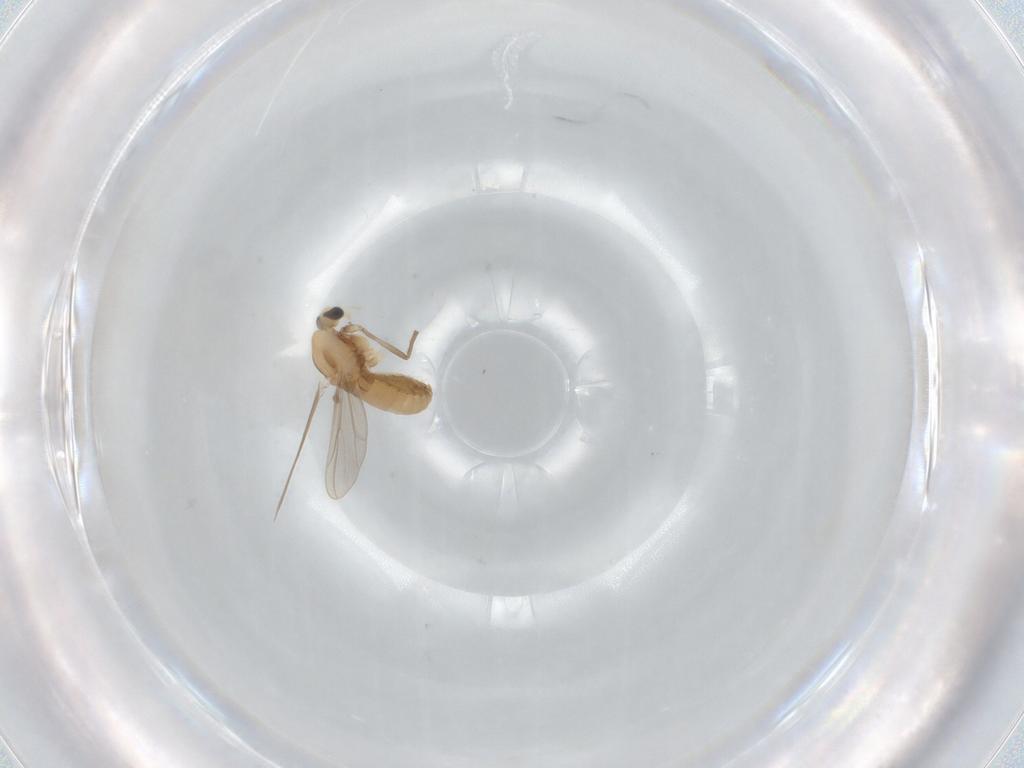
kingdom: Animalia
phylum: Arthropoda
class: Insecta
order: Diptera
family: Chironomidae
